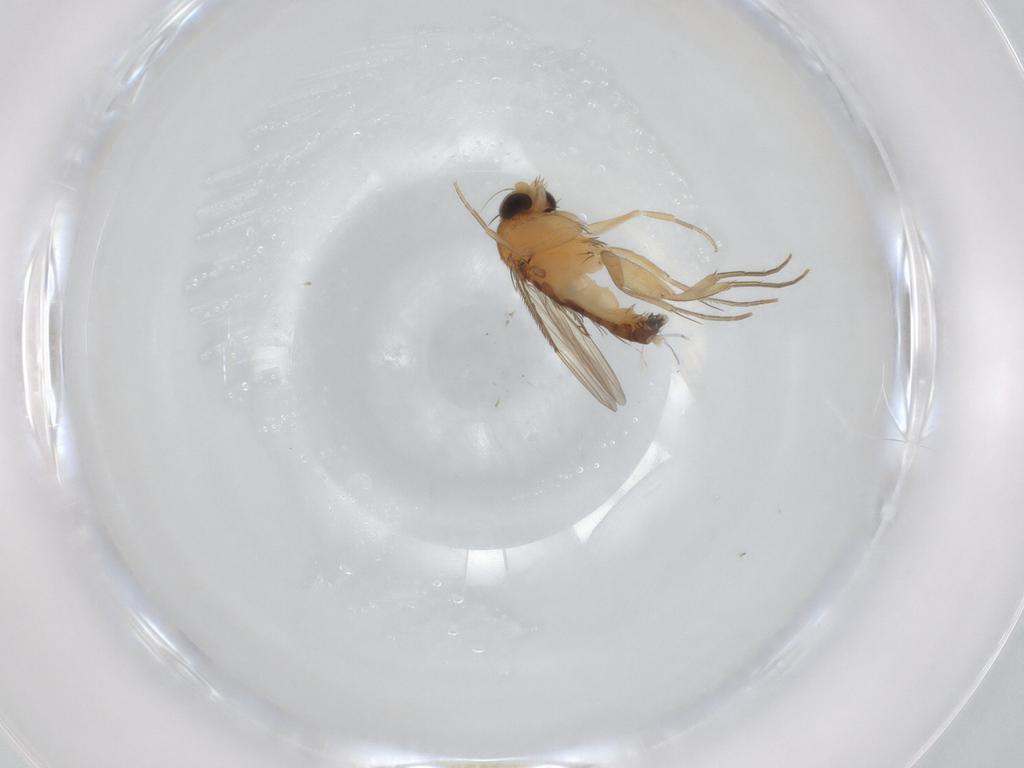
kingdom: Animalia
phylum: Arthropoda
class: Insecta
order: Diptera
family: Phoridae
